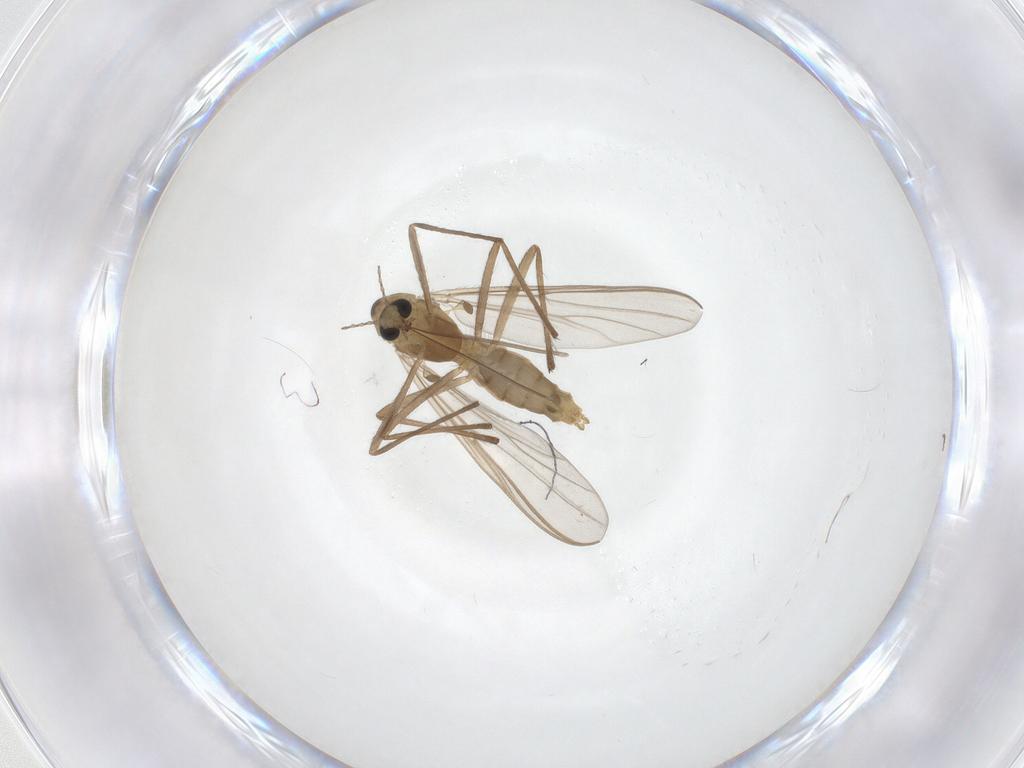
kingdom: Animalia
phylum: Arthropoda
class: Insecta
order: Diptera
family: Chironomidae
